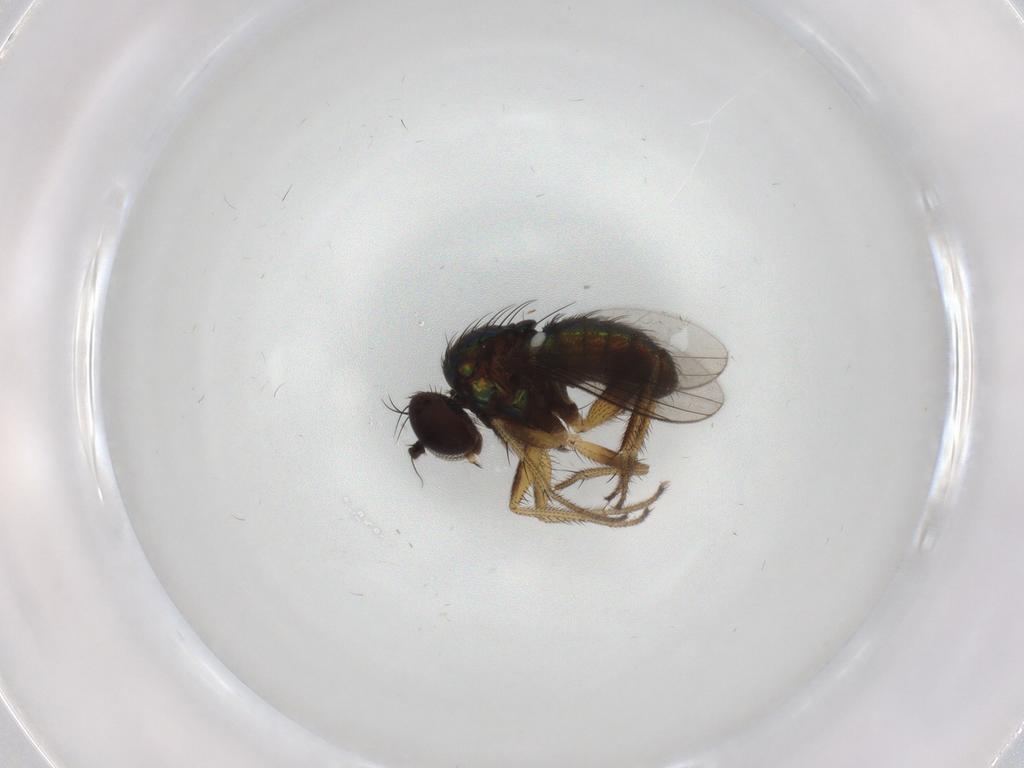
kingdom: Animalia
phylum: Arthropoda
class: Insecta
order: Diptera
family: Dolichopodidae
